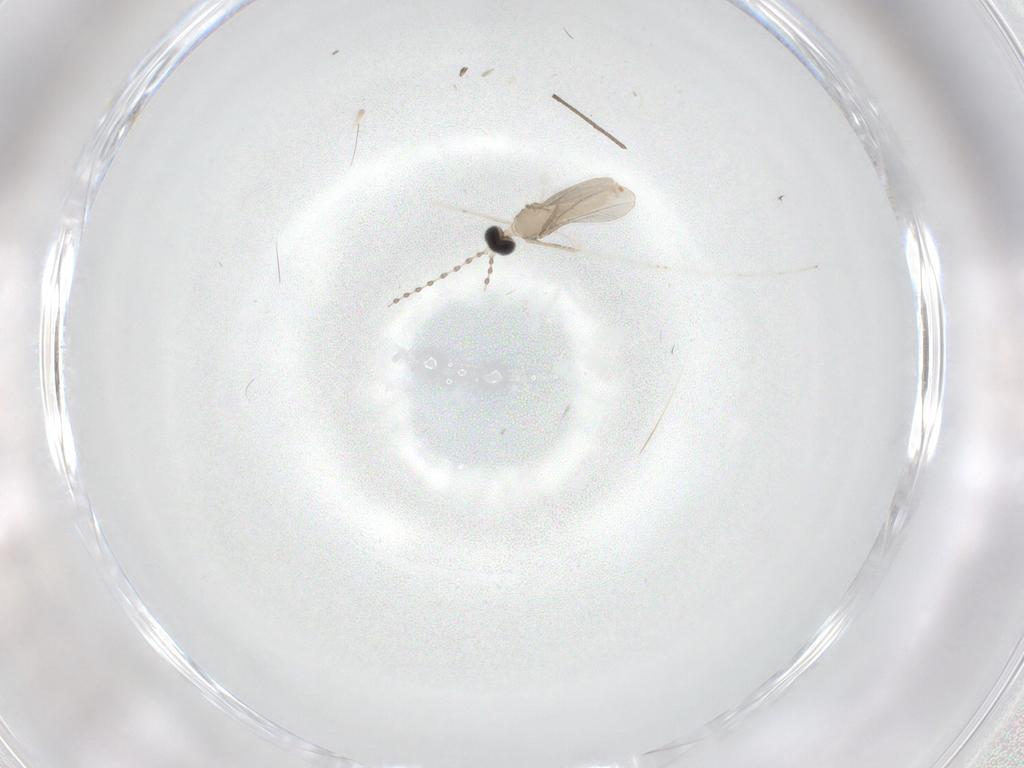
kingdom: Animalia
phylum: Arthropoda
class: Insecta
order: Diptera
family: Cecidomyiidae
